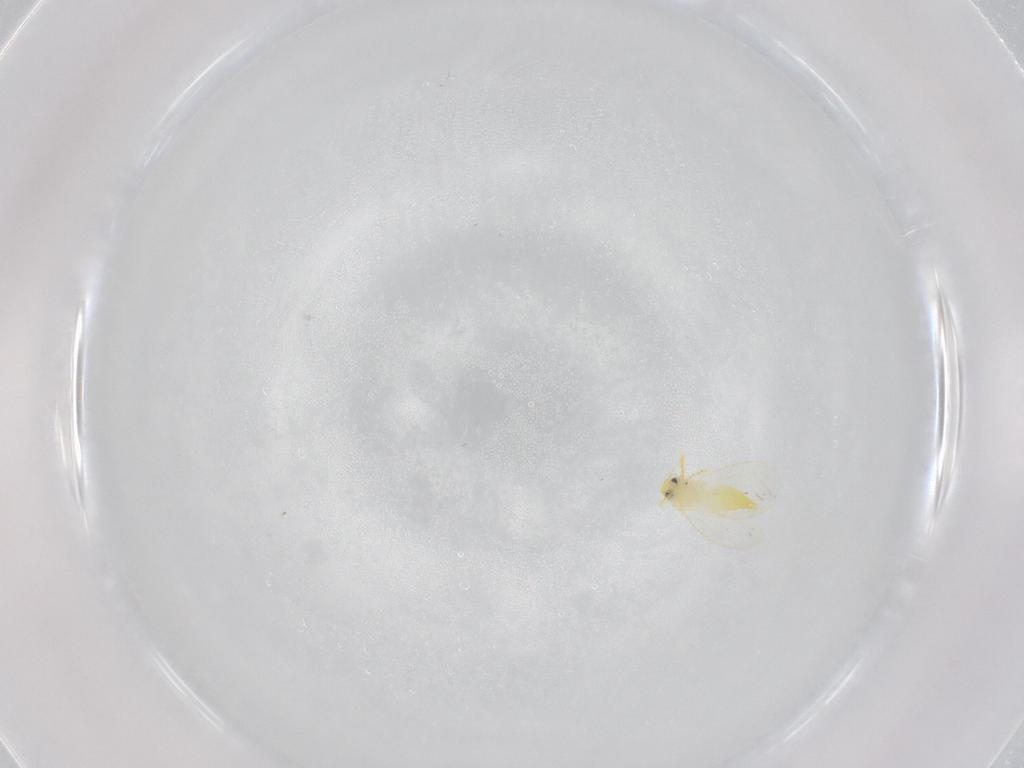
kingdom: Animalia
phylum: Arthropoda
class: Insecta
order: Hemiptera
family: Aleyrodidae
